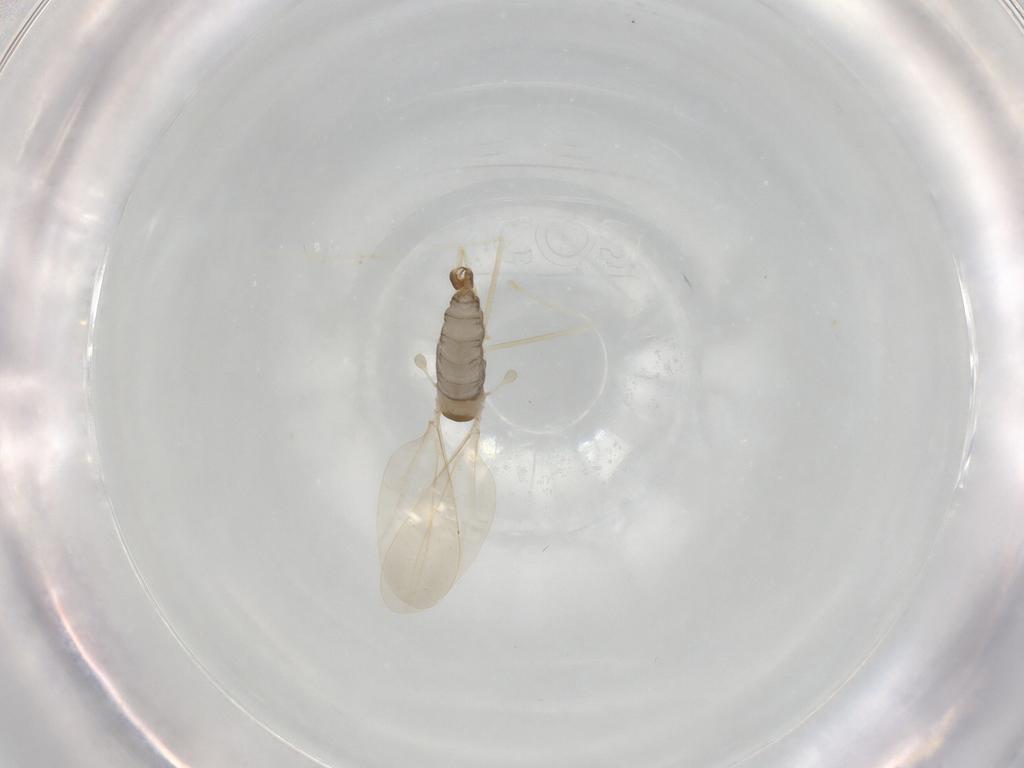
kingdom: Animalia
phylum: Arthropoda
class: Insecta
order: Diptera
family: Cecidomyiidae
